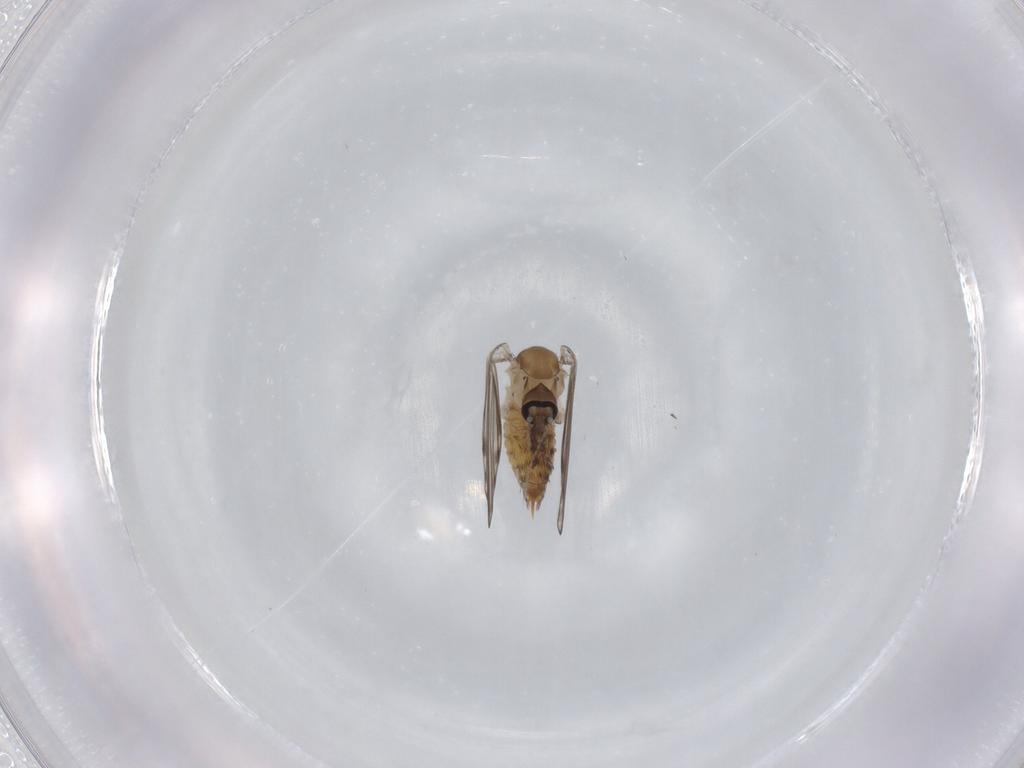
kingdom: Animalia
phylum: Arthropoda
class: Insecta
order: Diptera
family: Psychodidae
